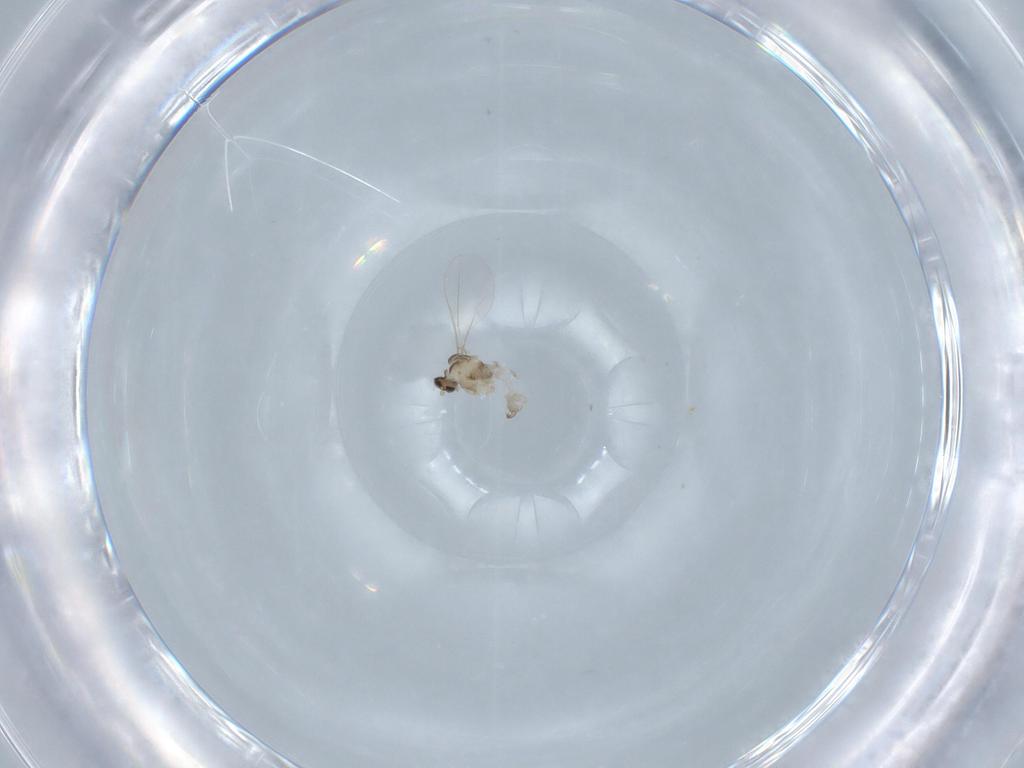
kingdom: Animalia
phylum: Arthropoda
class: Insecta
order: Diptera
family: Cecidomyiidae
